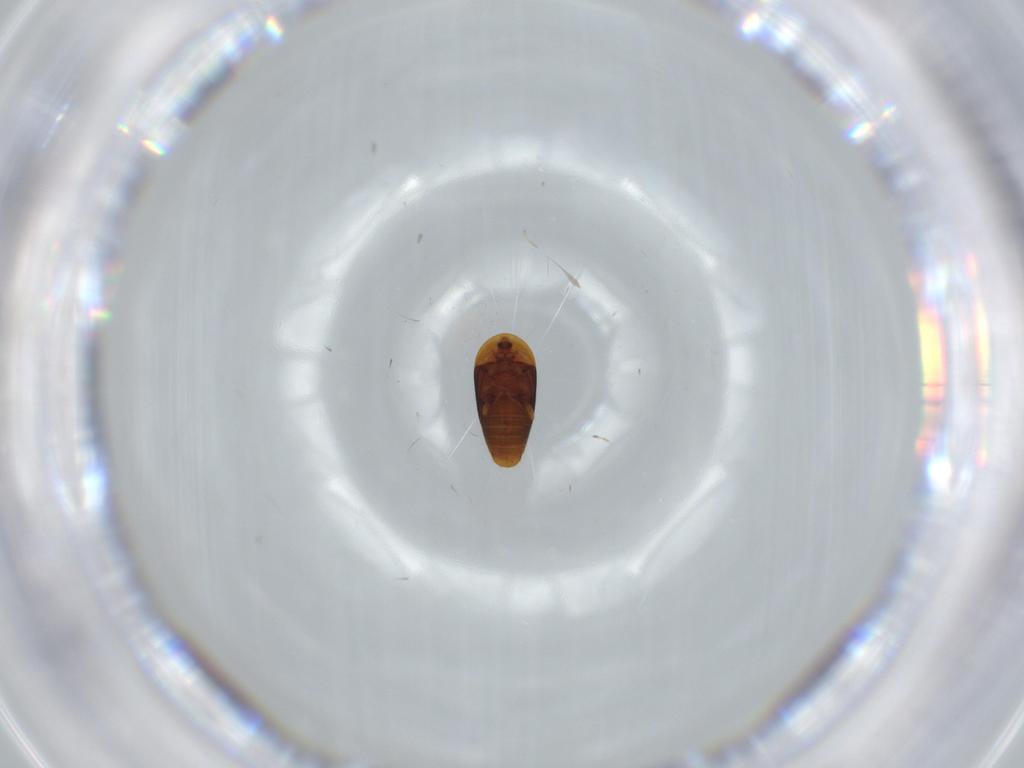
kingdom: Animalia
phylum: Arthropoda
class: Insecta
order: Coleoptera
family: Corylophidae
